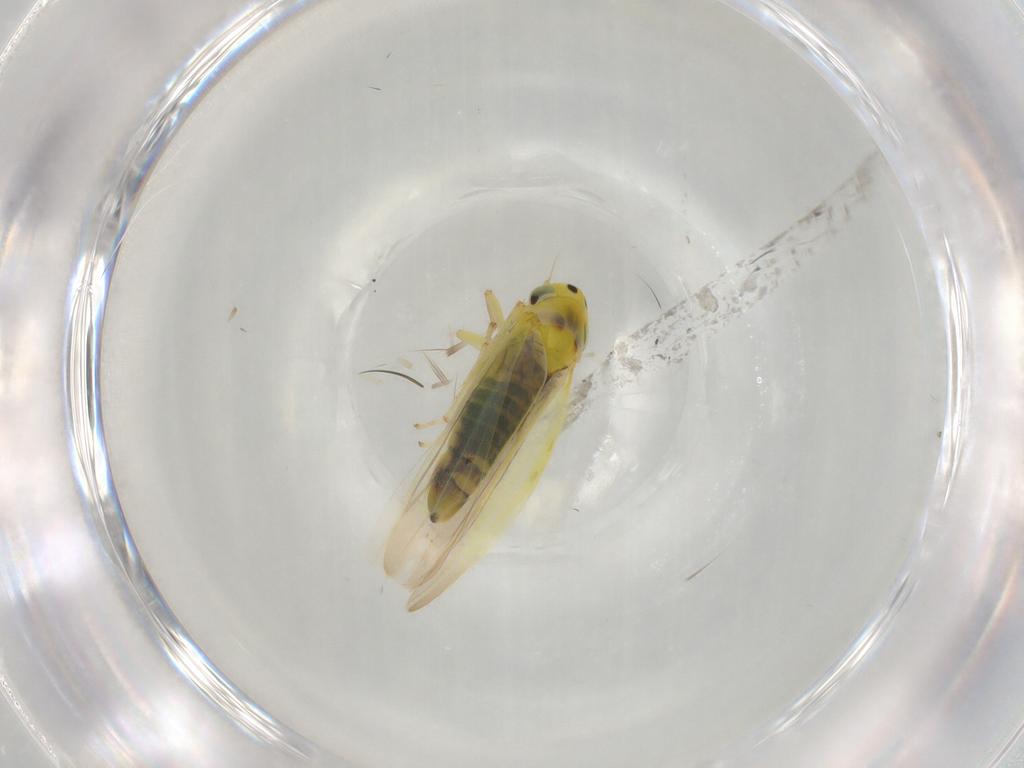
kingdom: Animalia
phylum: Arthropoda
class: Insecta
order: Hemiptera
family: Cicadellidae
